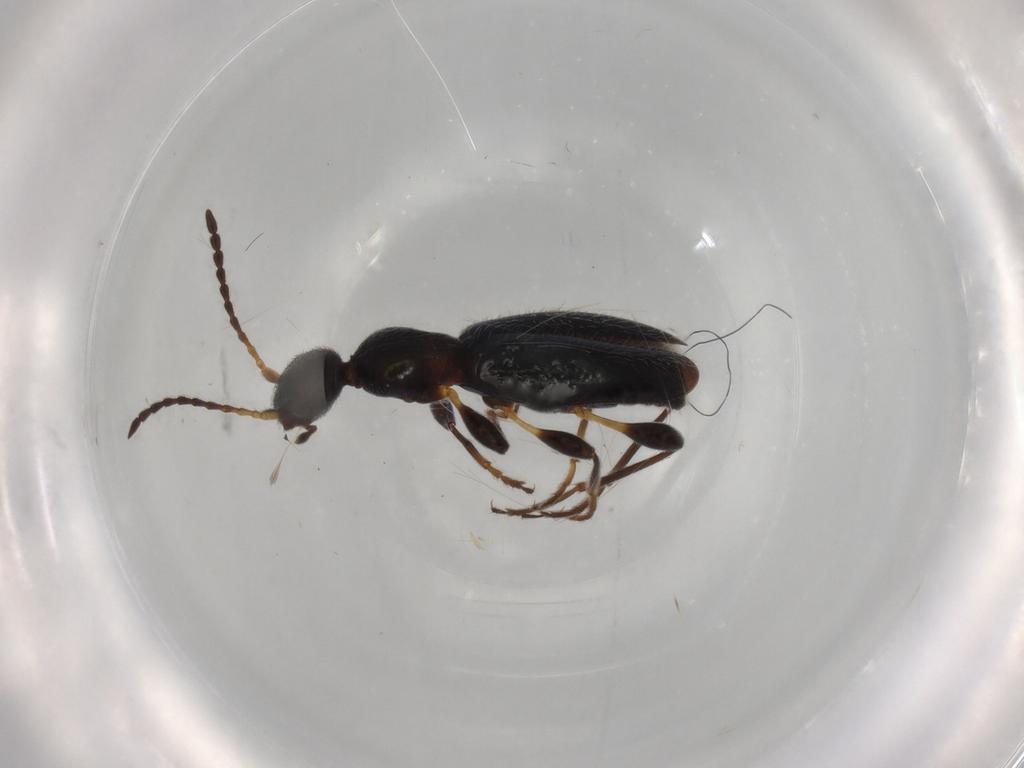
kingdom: Animalia
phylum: Arthropoda
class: Insecta
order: Coleoptera
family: Anthicidae
